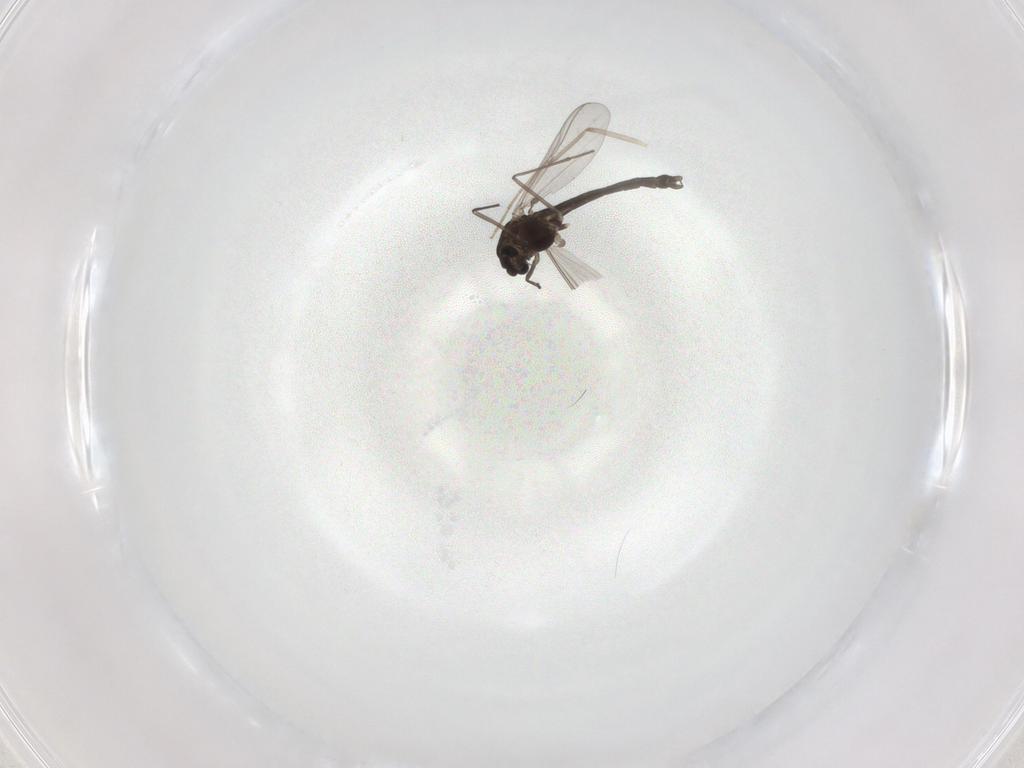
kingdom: Animalia
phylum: Arthropoda
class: Insecta
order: Diptera
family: Chironomidae
